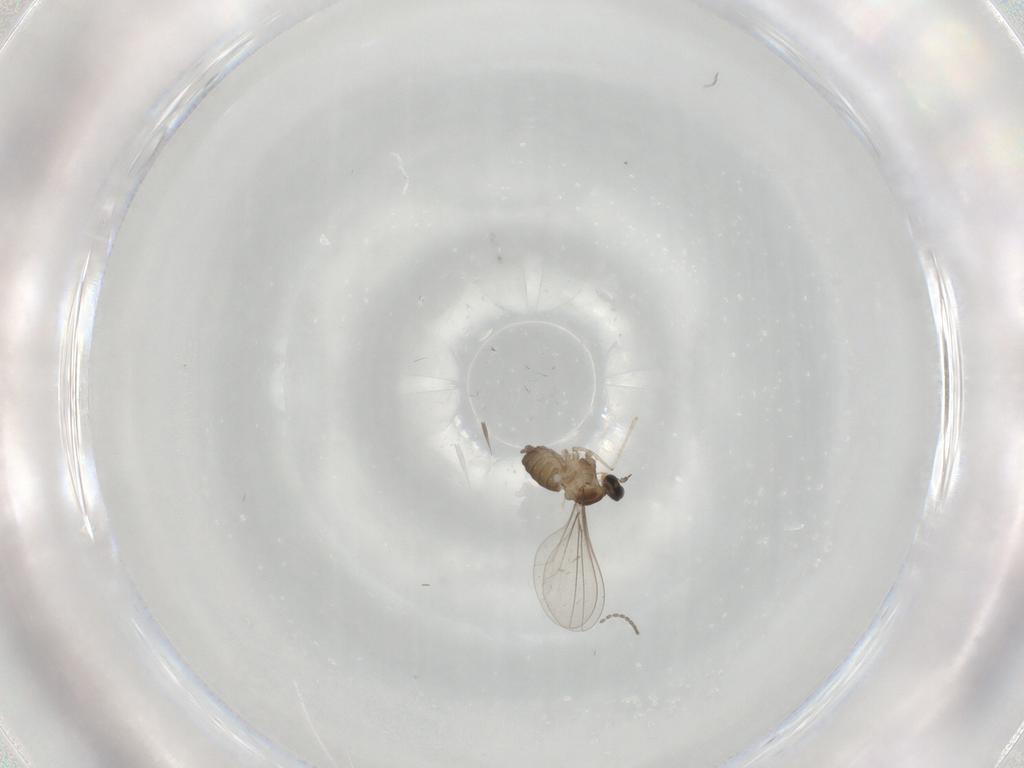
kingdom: Animalia
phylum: Arthropoda
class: Insecta
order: Diptera
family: Cecidomyiidae
